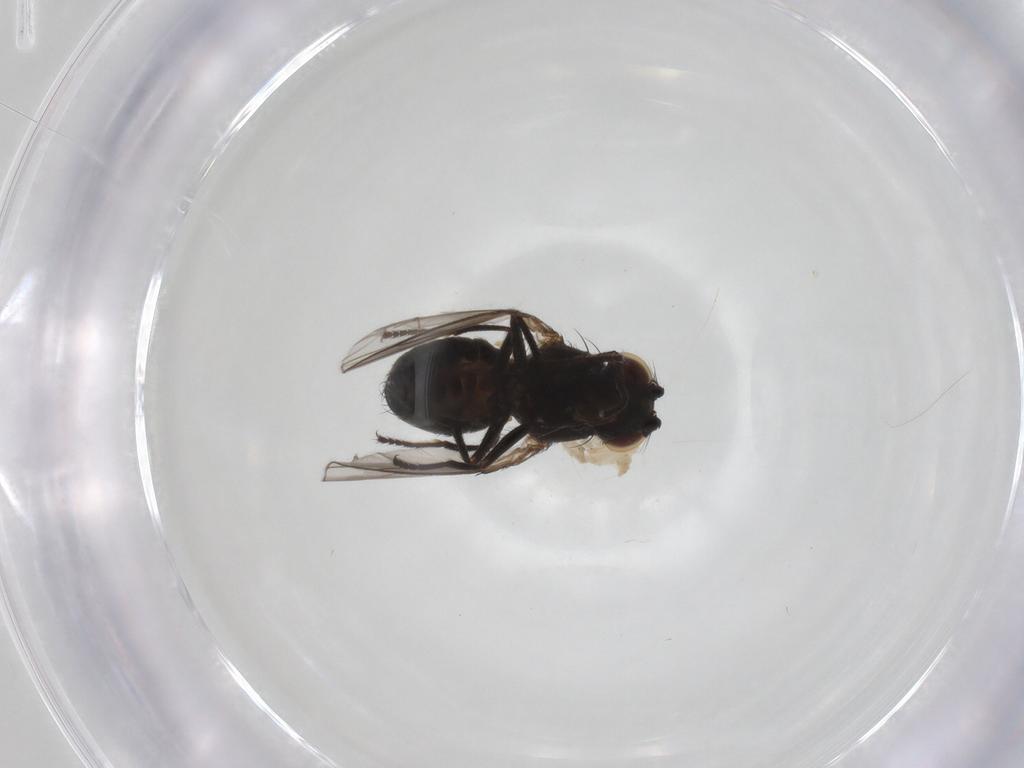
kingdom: Animalia
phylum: Arthropoda
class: Insecta
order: Diptera
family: Ephydridae
